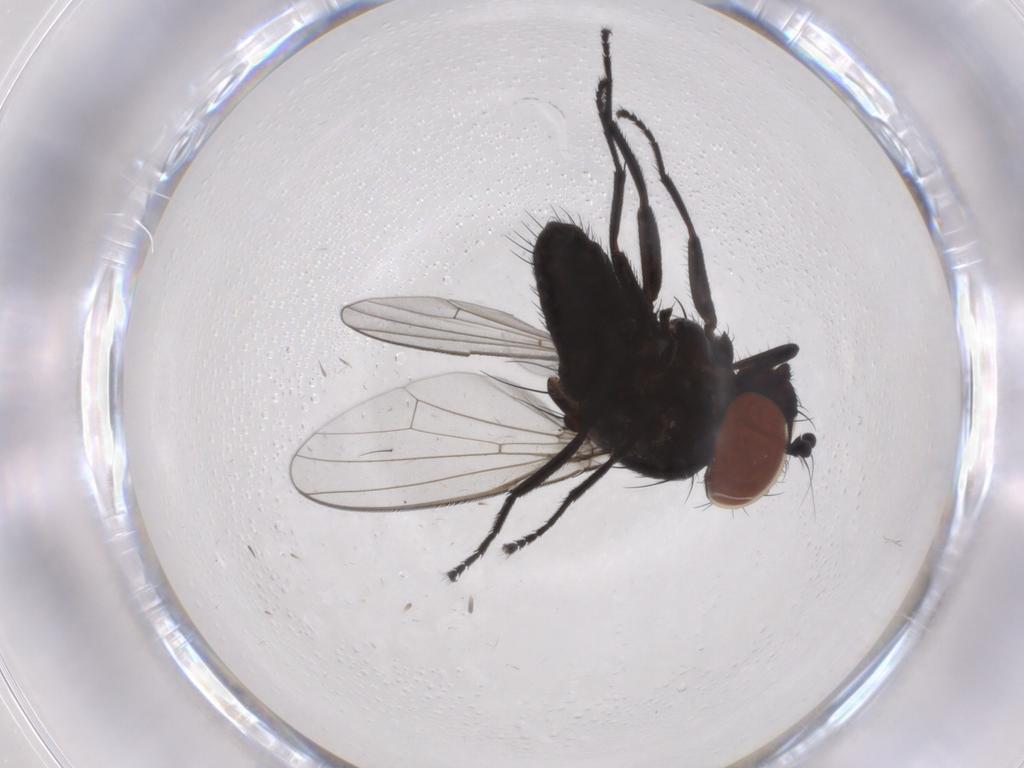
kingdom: Animalia
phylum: Arthropoda
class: Insecta
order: Diptera
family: Milichiidae
